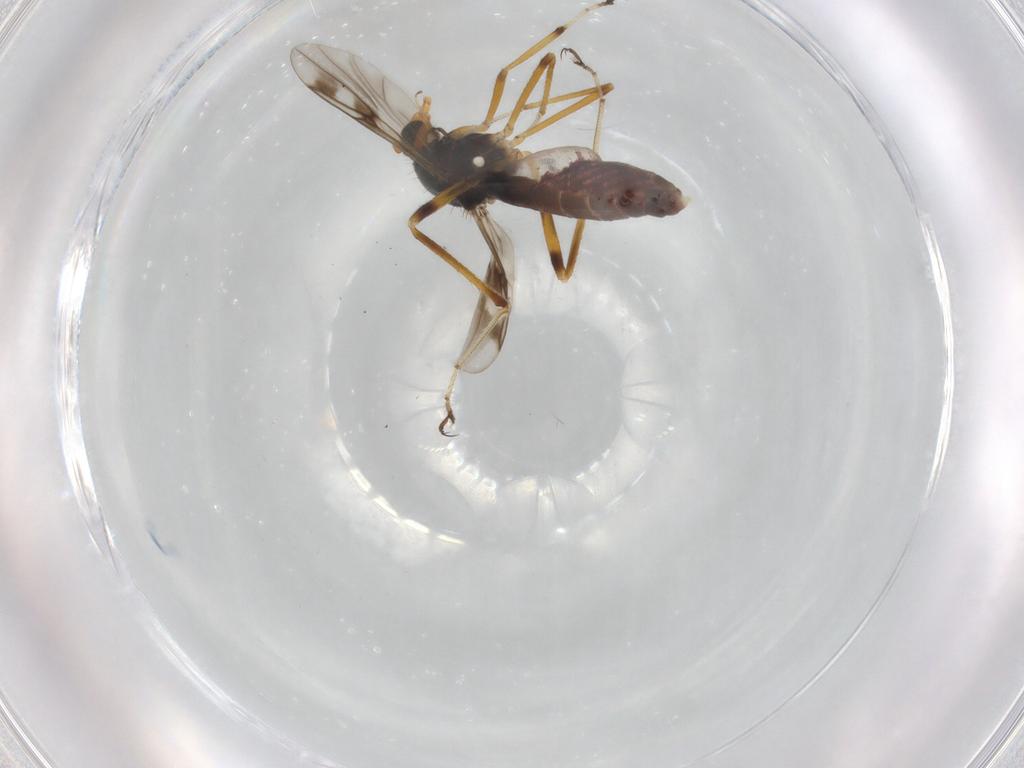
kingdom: Animalia
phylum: Arthropoda
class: Insecta
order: Diptera
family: Ceratopogonidae
